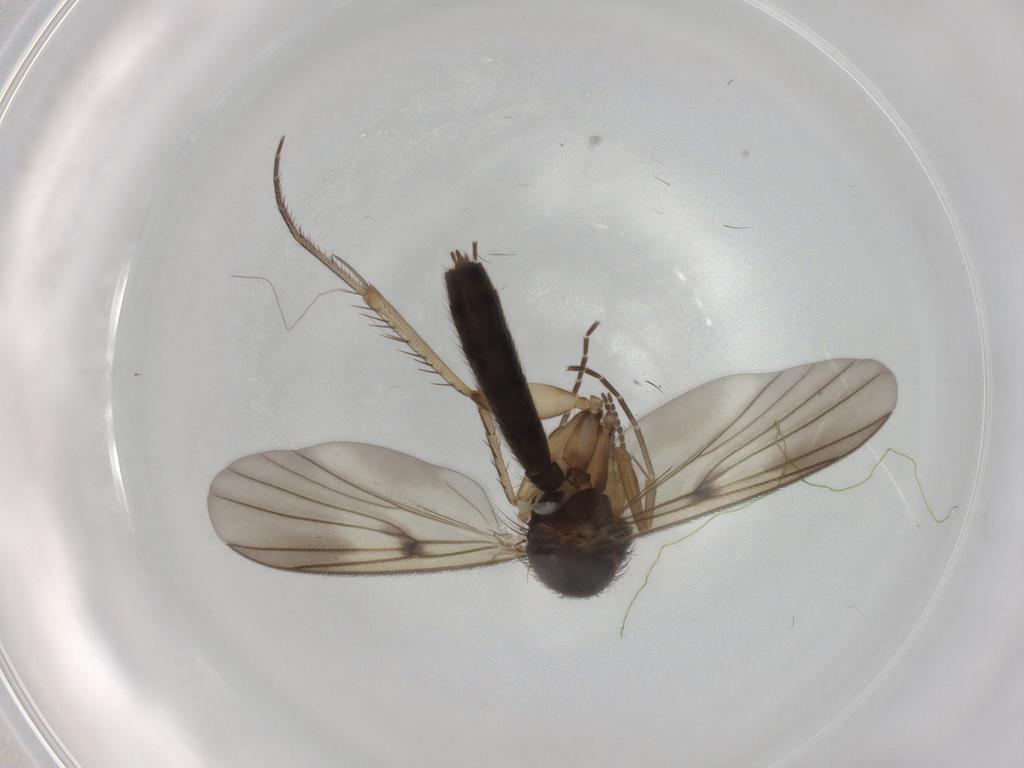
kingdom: Animalia
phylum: Arthropoda
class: Insecta
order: Diptera
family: Mycetophilidae
